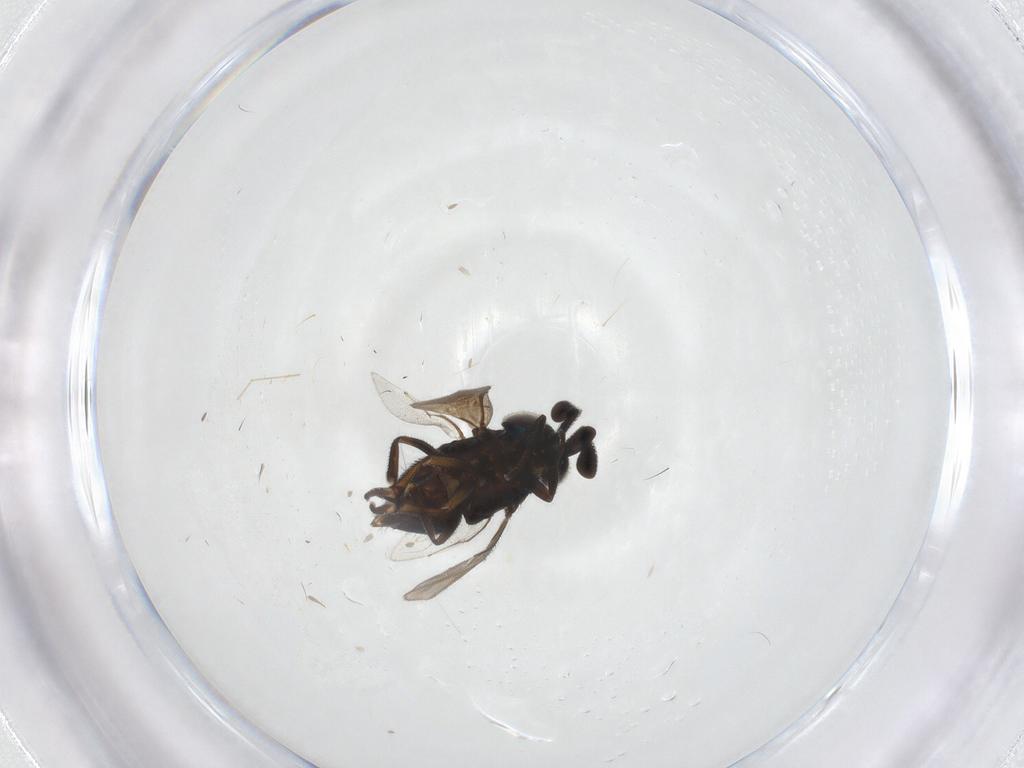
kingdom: Animalia
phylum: Arthropoda
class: Insecta
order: Hymenoptera
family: Encyrtidae
